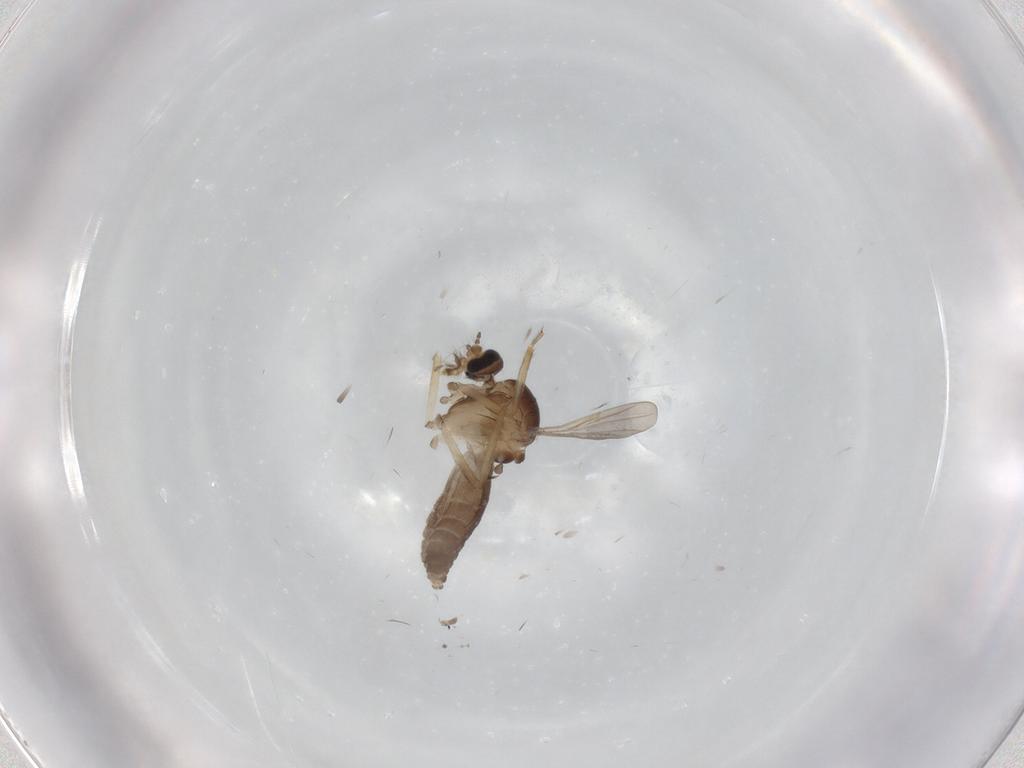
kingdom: Animalia
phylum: Arthropoda
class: Insecta
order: Diptera
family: Ceratopogonidae
